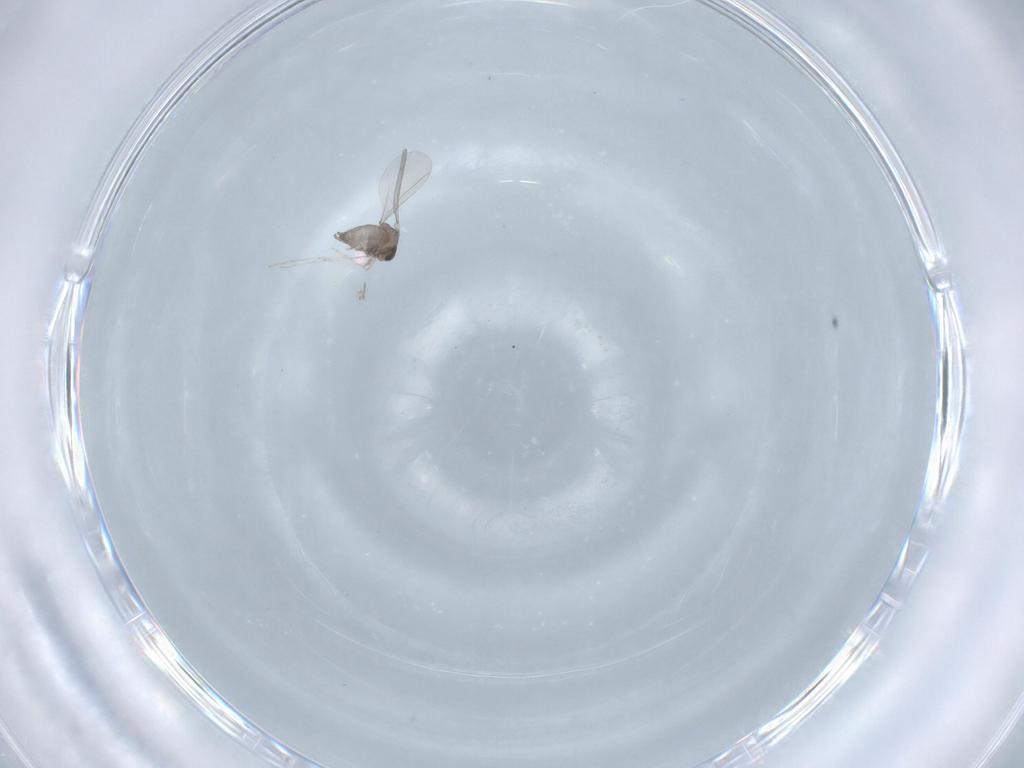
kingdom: Animalia
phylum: Arthropoda
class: Insecta
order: Diptera
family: Cecidomyiidae
